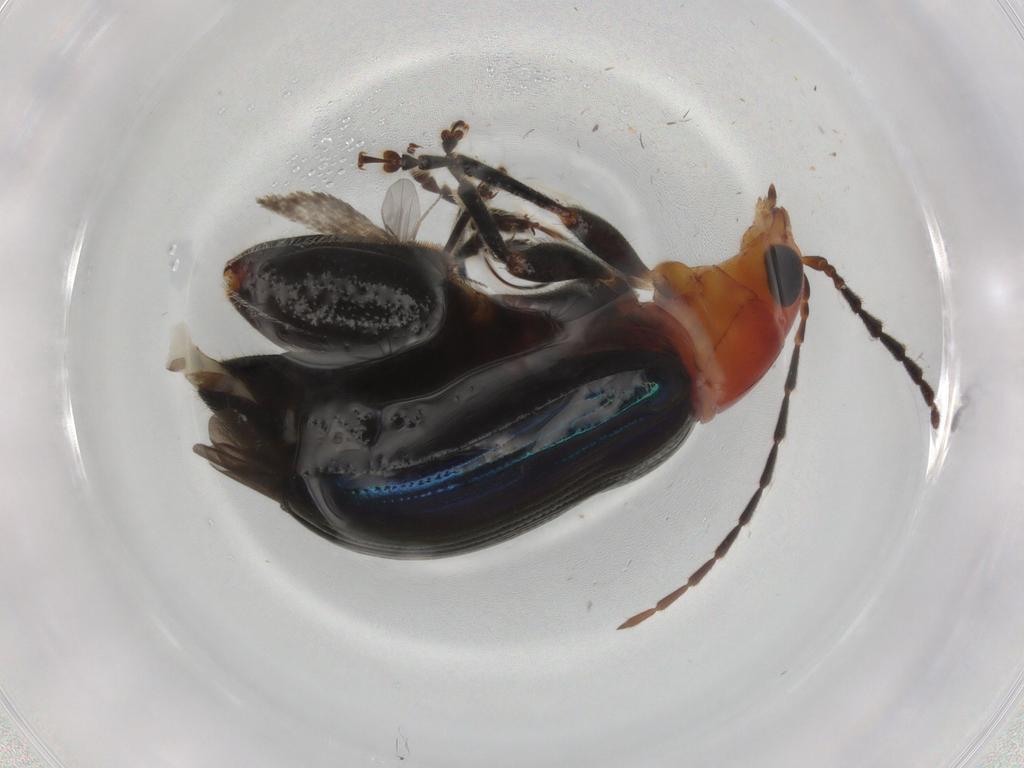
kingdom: Animalia
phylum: Arthropoda
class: Insecta
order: Coleoptera
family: Chrysomelidae
